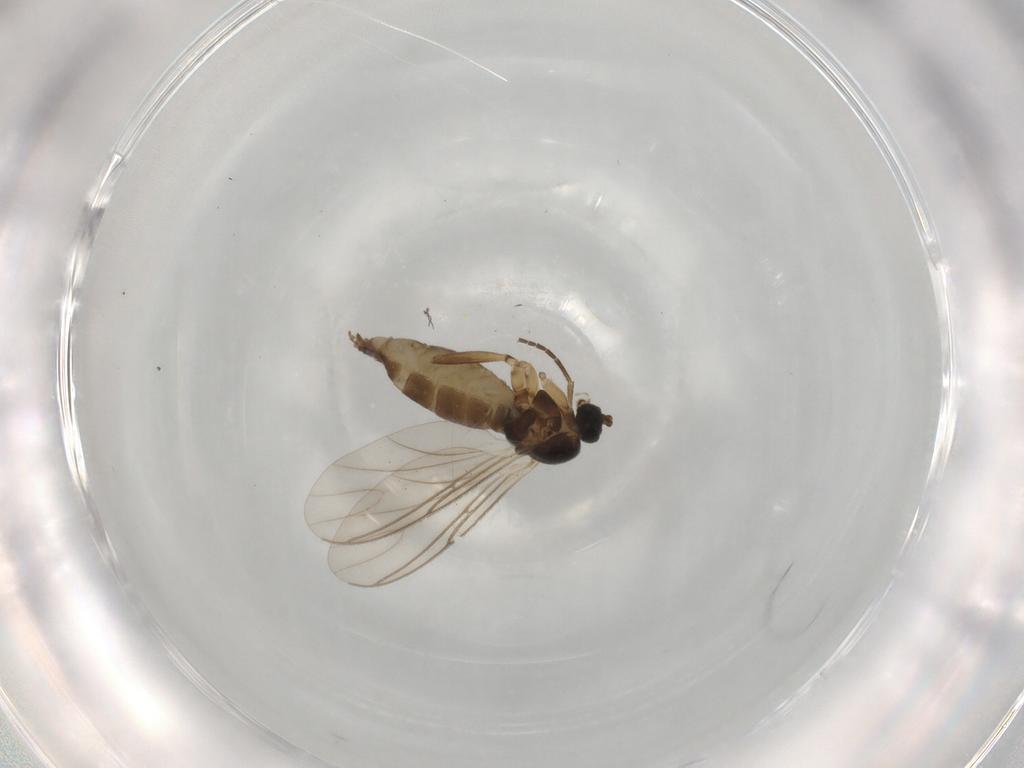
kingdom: Animalia
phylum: Arthropoda
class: Insecta
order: Diptera
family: Sciaridae
